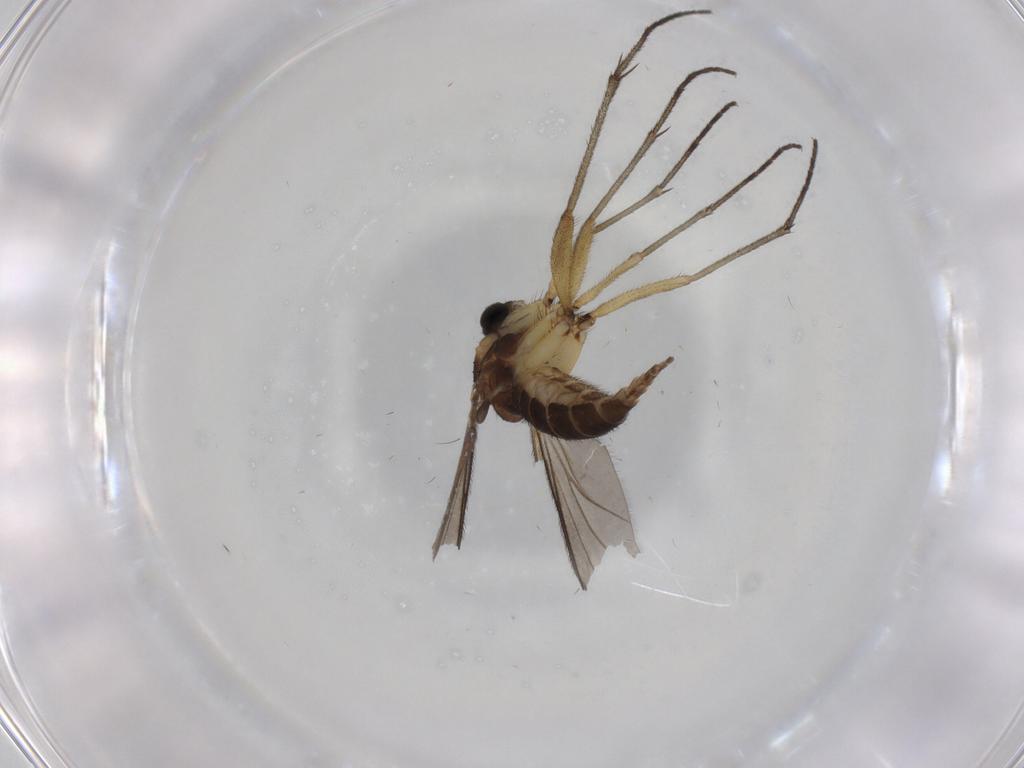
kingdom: Animalia
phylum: Arthropoda
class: Insecta
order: Diptera
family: Sciaridae
